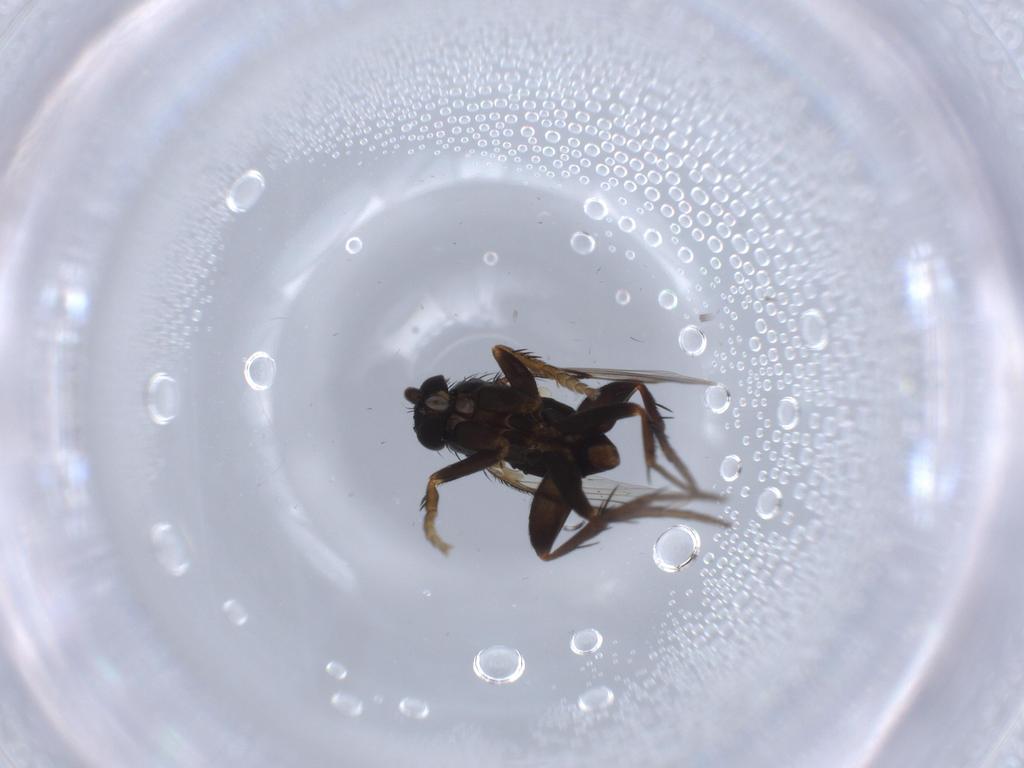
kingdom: Animalia
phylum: Arthropoda
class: Insecta
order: Diptera
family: Phoridae
